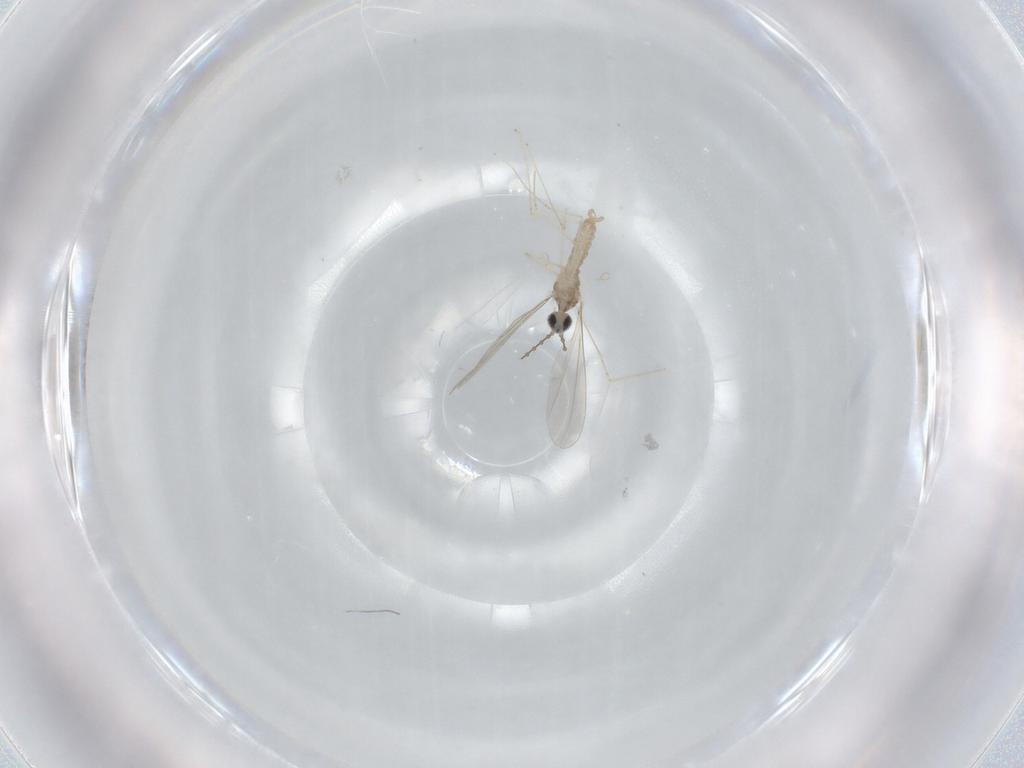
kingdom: Animalia
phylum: Arthropoda
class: Insecta
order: Diptera
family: Cecidomyiidae
